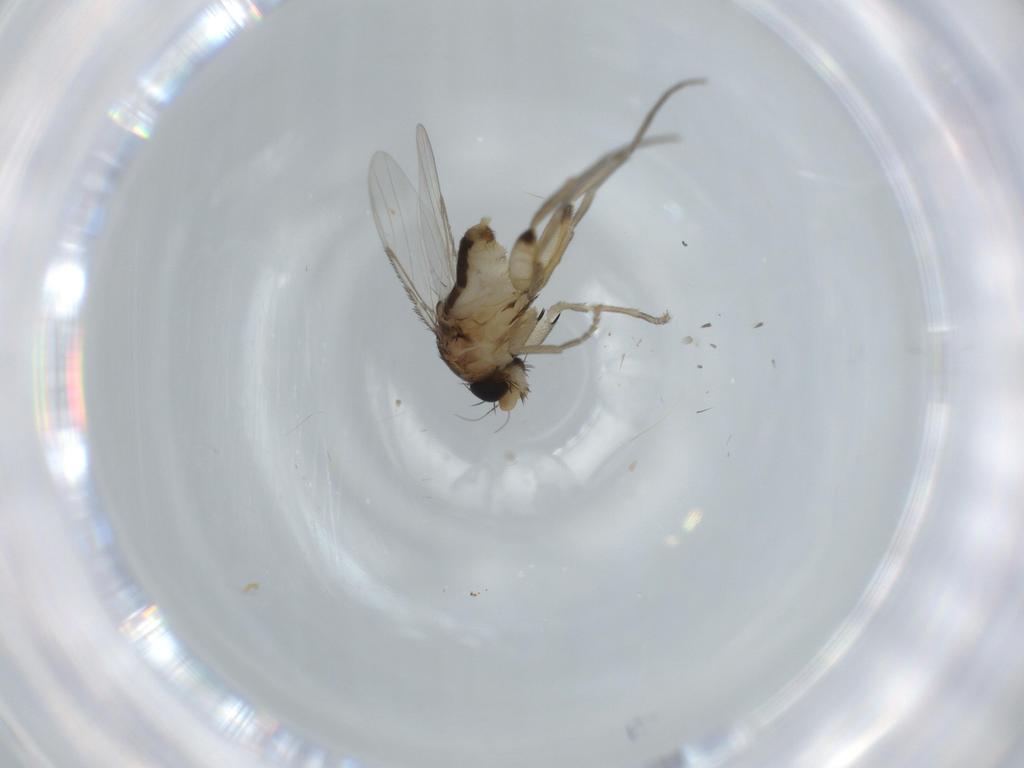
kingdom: Animalia
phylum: Arthropoda
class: Insecta
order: Diptera
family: Phoridae
